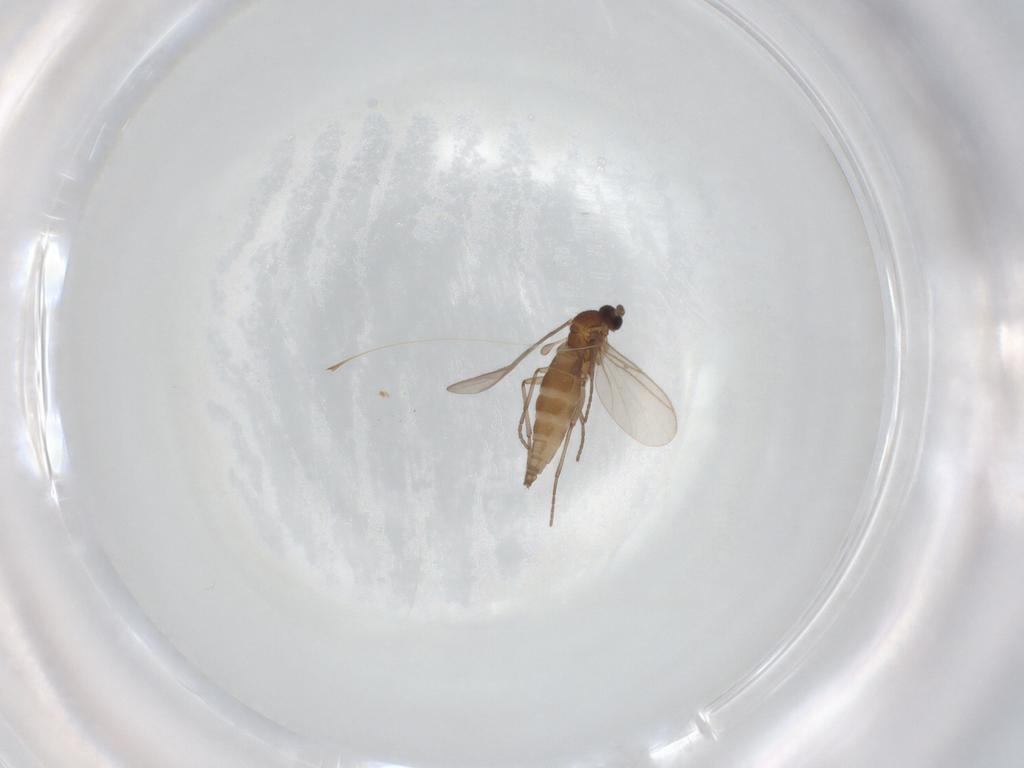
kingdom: Animalia
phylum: Arthropoda
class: Insecta
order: Diptera
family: Sciaridae
